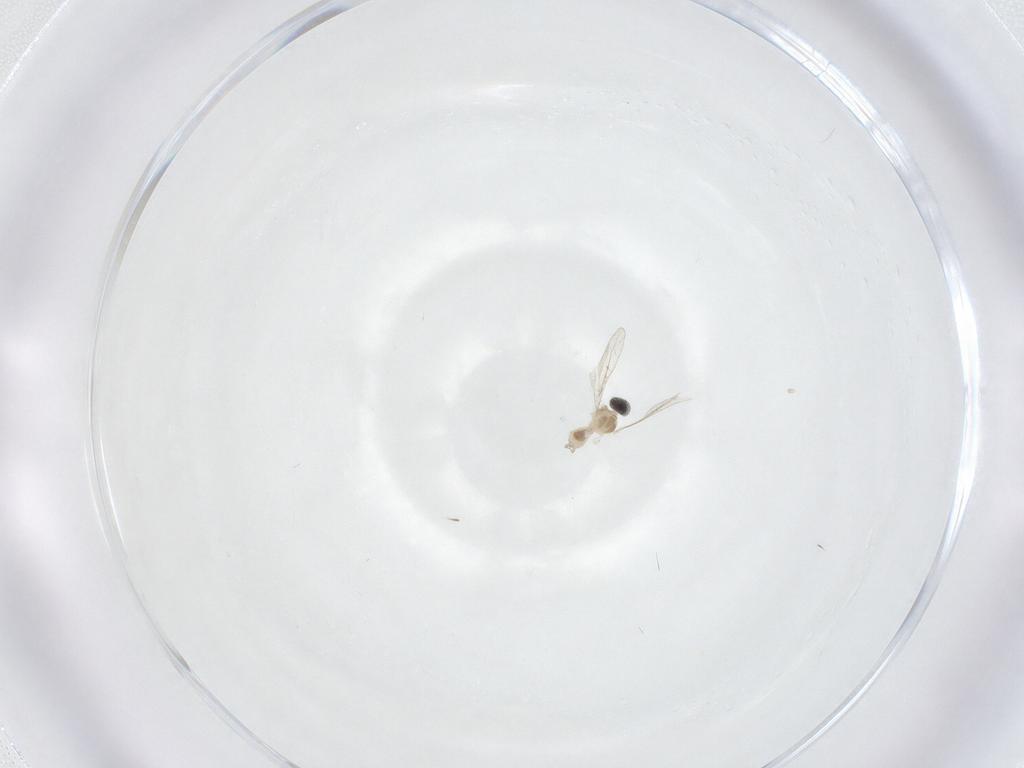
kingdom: Animalia
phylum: Arthropoda
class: Insecta
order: Diptera
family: Cecidomyiidae
